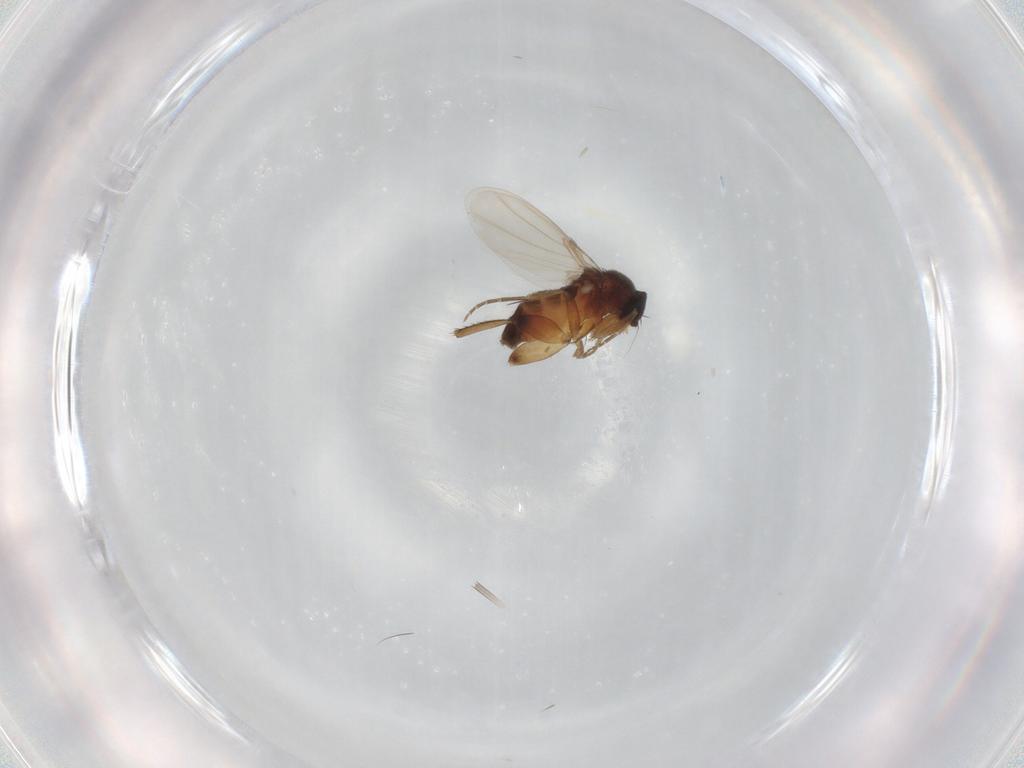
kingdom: Animalia
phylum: Arthropoda
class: Insecta
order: Diptera
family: Phoridae
